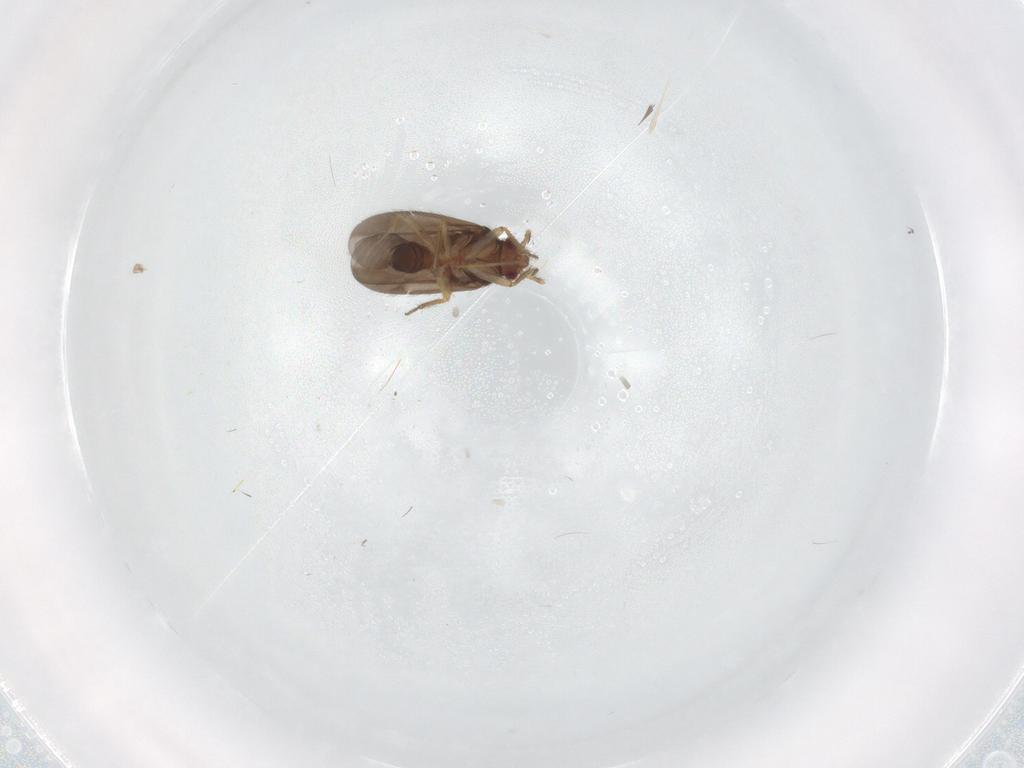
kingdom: Animalia
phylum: Arthropoda
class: Insecta
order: Hemiptera
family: Ceratocombidae
